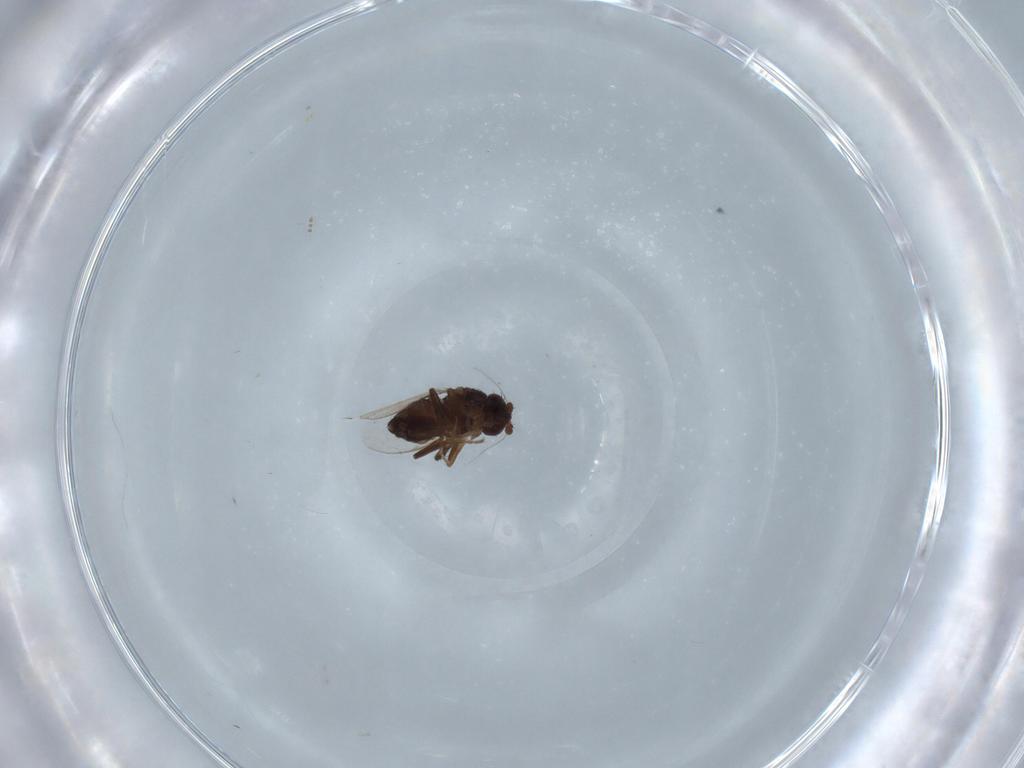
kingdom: Animalia
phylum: Arthropoda
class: Insecta
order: Diptera
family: Sphaeroceridae
